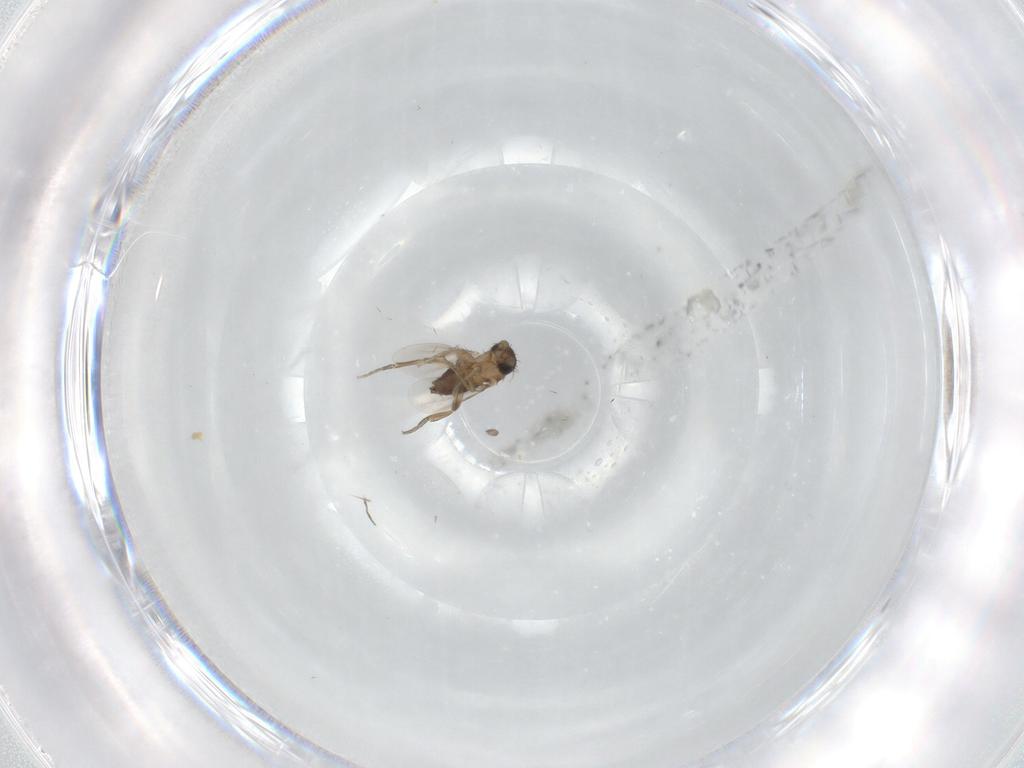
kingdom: Animalia
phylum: Arthropoda
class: Insecta
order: Diptera
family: Phoridae
